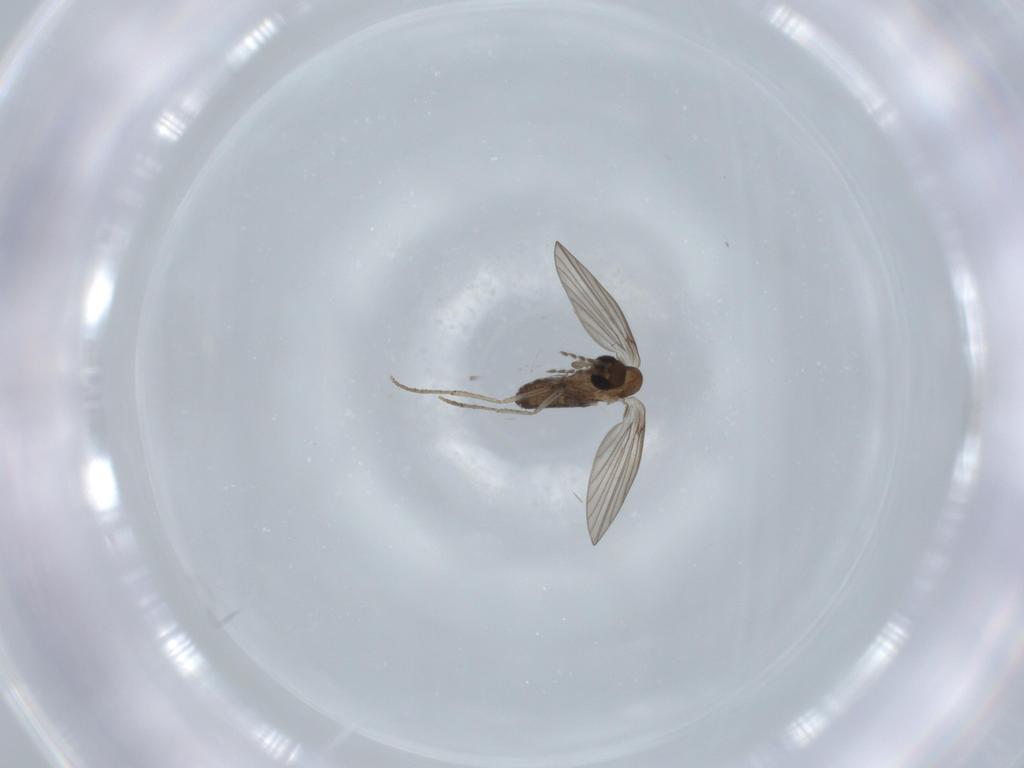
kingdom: Animalia
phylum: Arthropoda
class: Insecta
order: Diptera
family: Psychodidae
